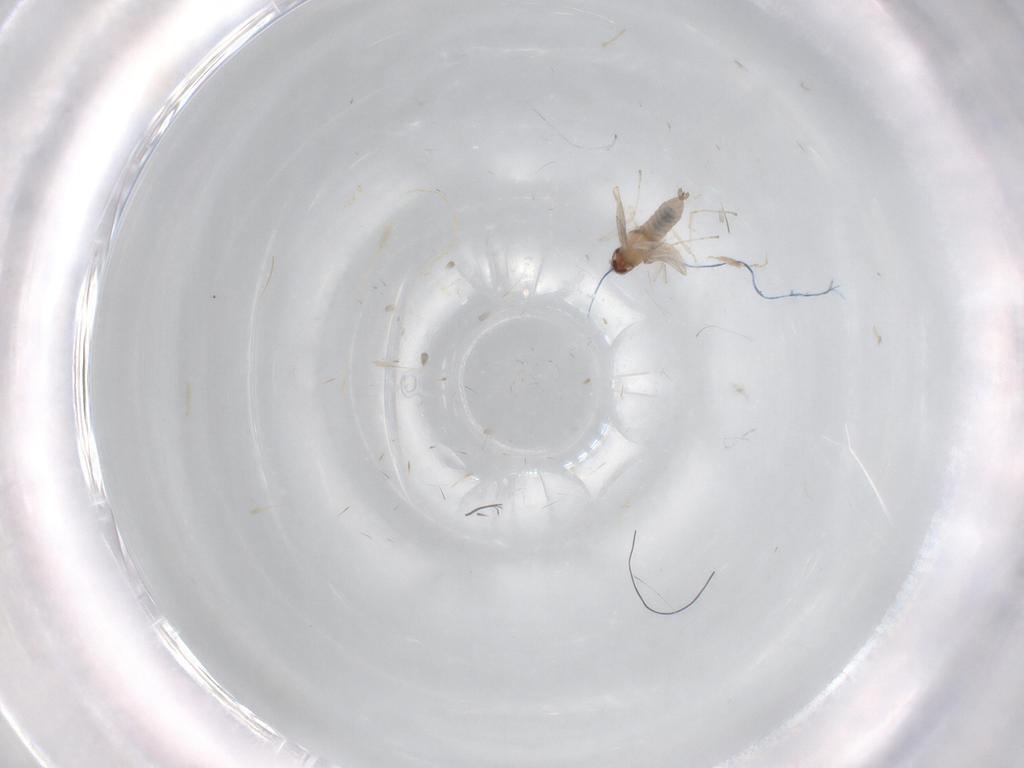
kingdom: Animalia
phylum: Arthropoda
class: Insecta
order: Diptera
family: Cecidomyiidae
